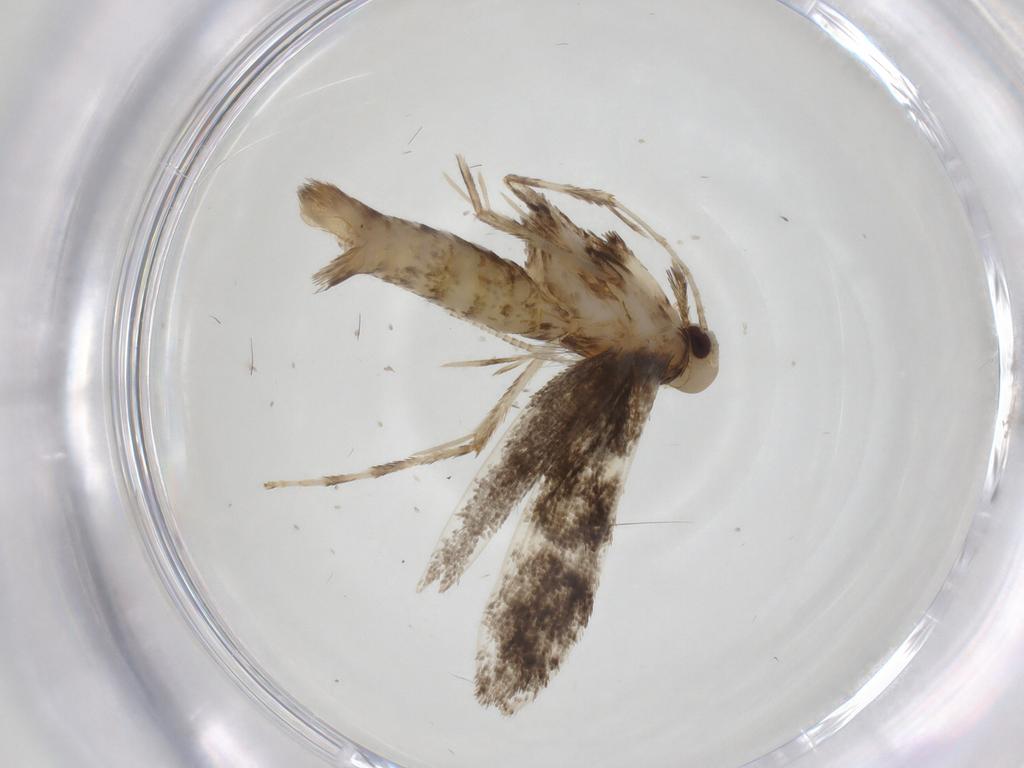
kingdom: Animalia
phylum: Arthropoda
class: Insecta
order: Lepidoptera
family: Gracillariidae
